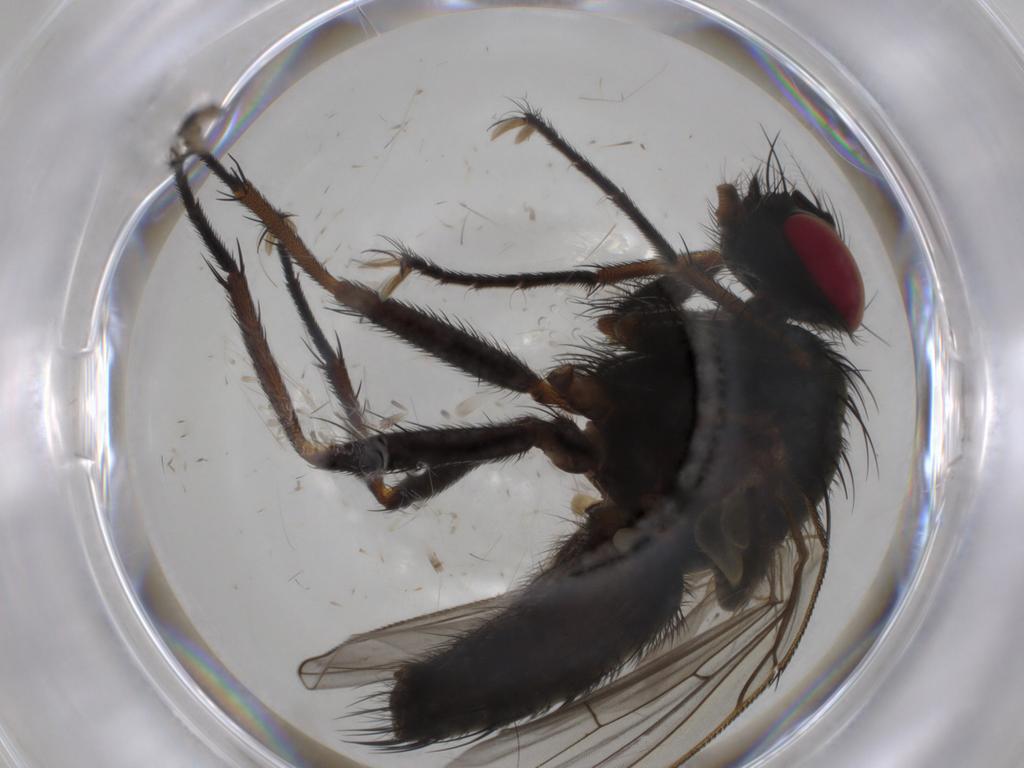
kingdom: Animalia
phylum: Arthropoda
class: Insecta
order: Diptera
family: Muscidae
